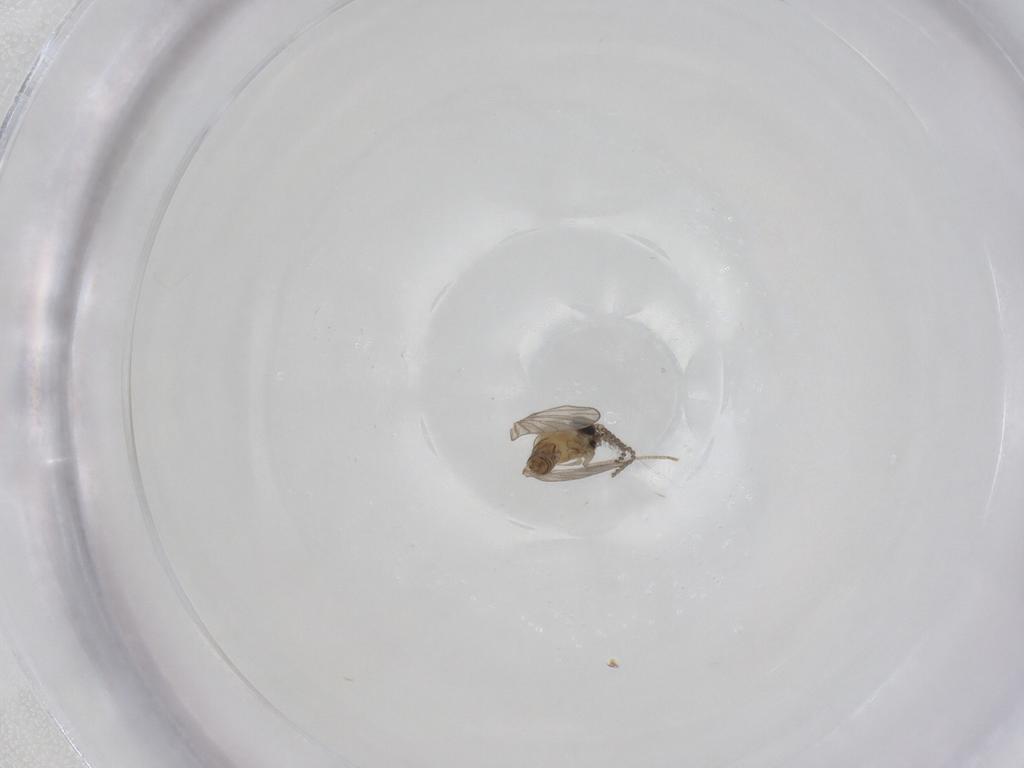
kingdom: Animalia
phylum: Arthropoda
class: Insecta
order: Diptera
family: Psychodidae
